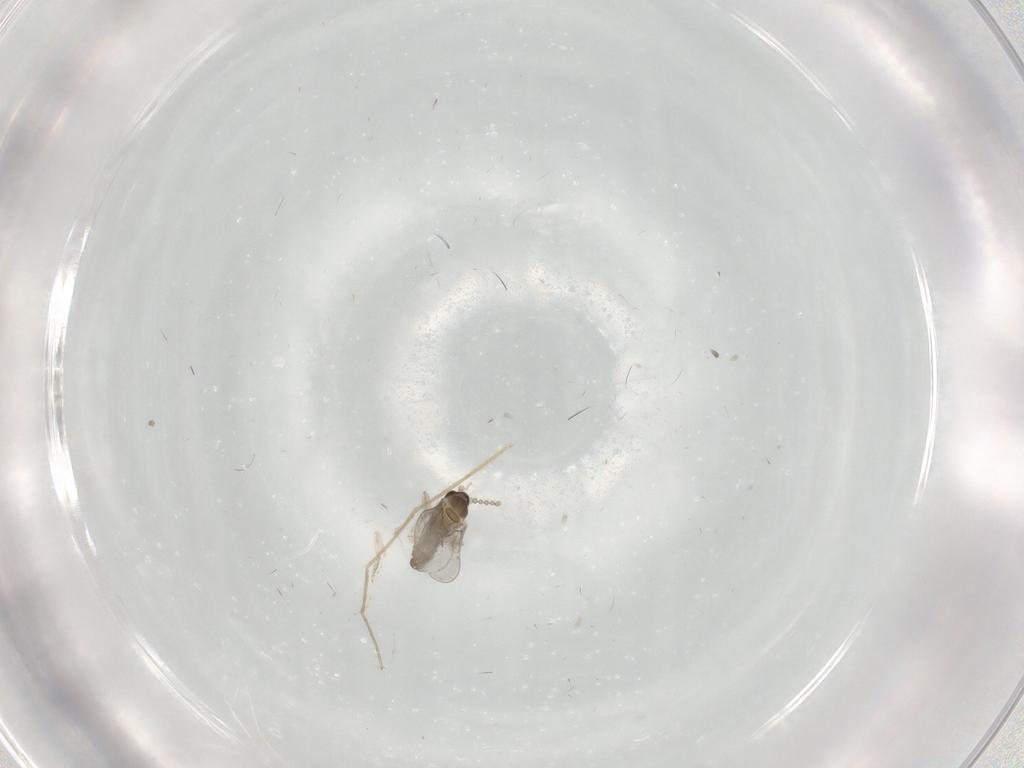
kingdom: Animalia
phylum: Arthropoda
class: Insecta
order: Diptera
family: Cecidomyiidae
